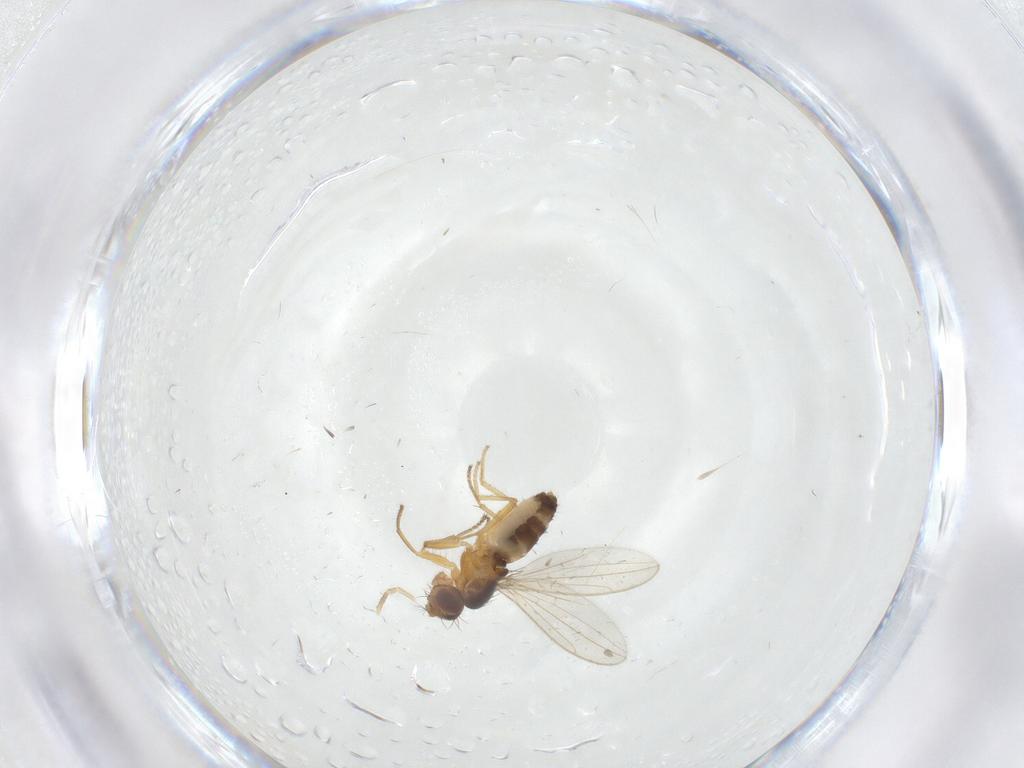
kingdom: Animalia
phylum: Arthropoda
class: Insecta
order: Diptera
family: Periscelididae
